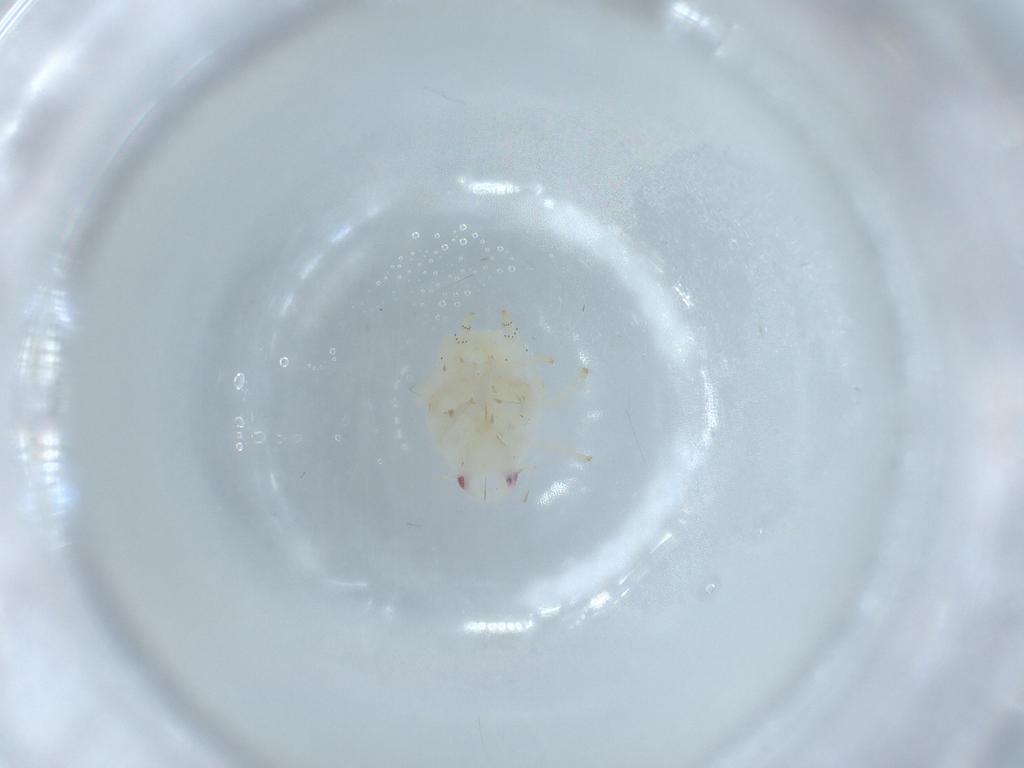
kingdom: Animalia
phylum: Arthropoda
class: Insecta
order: Hemiptera
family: Flatidae
